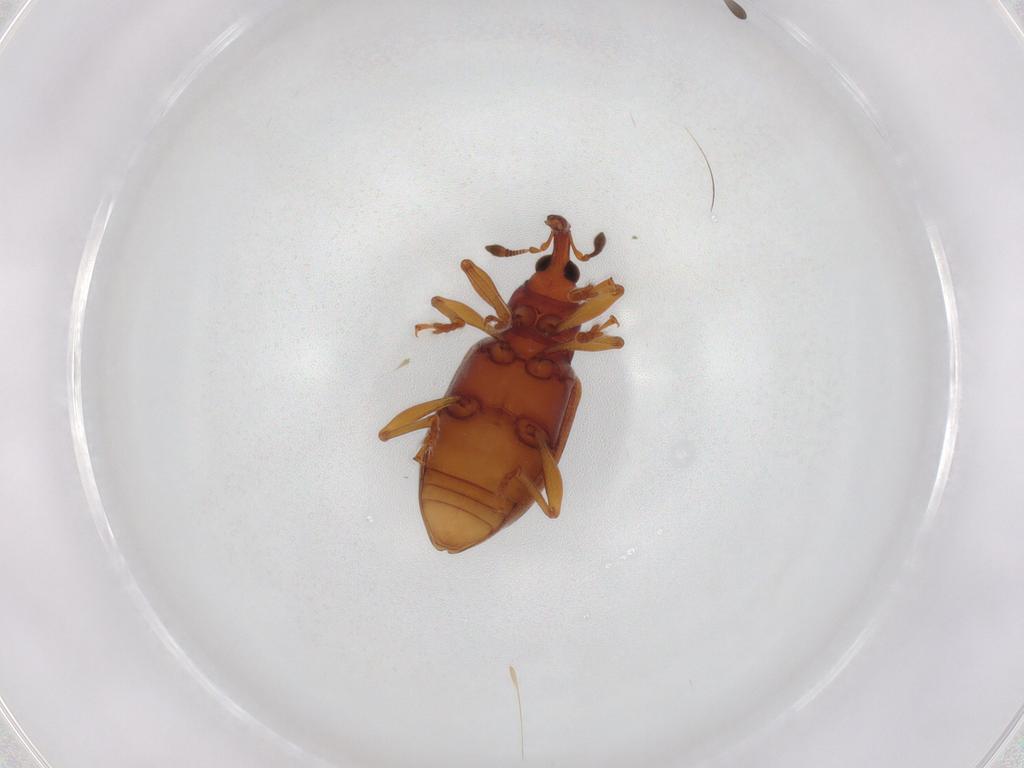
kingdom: Animalia
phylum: Arthropoda
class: Insecta
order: Coleoptera
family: Curculionidae
